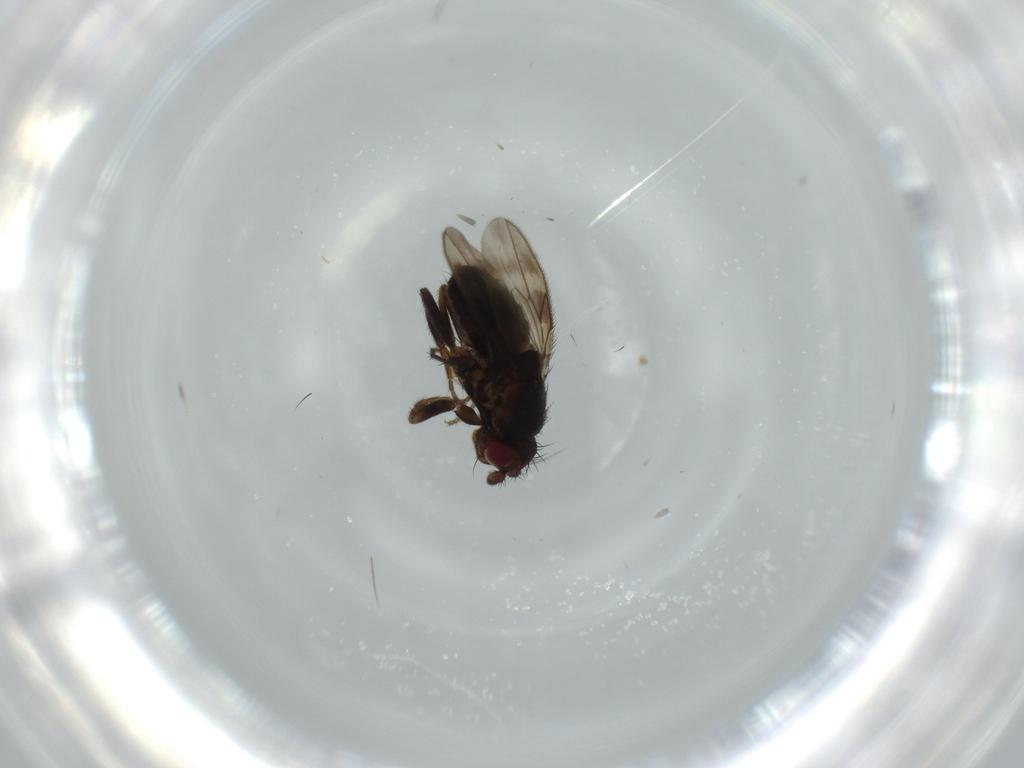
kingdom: Animalia
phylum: Arthropoda
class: Insecta
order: Diptera
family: Sphaeroceridae
